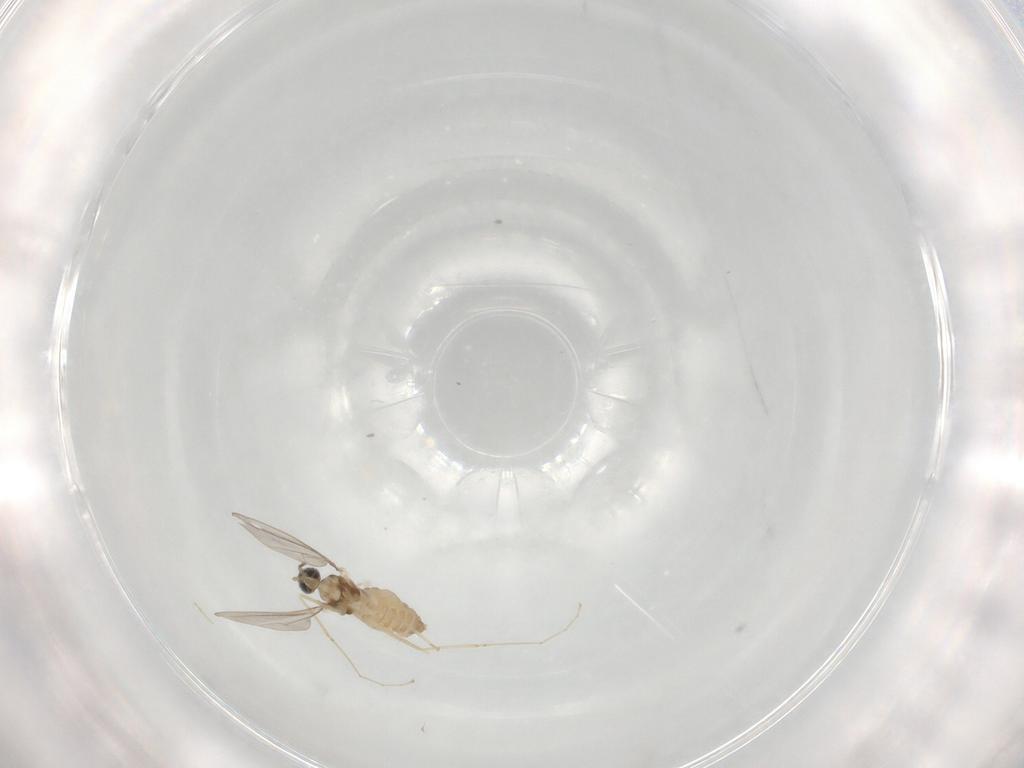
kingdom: Animalia
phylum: Arthropoda
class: Insecta
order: Diptera
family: Cecidomyiidae
